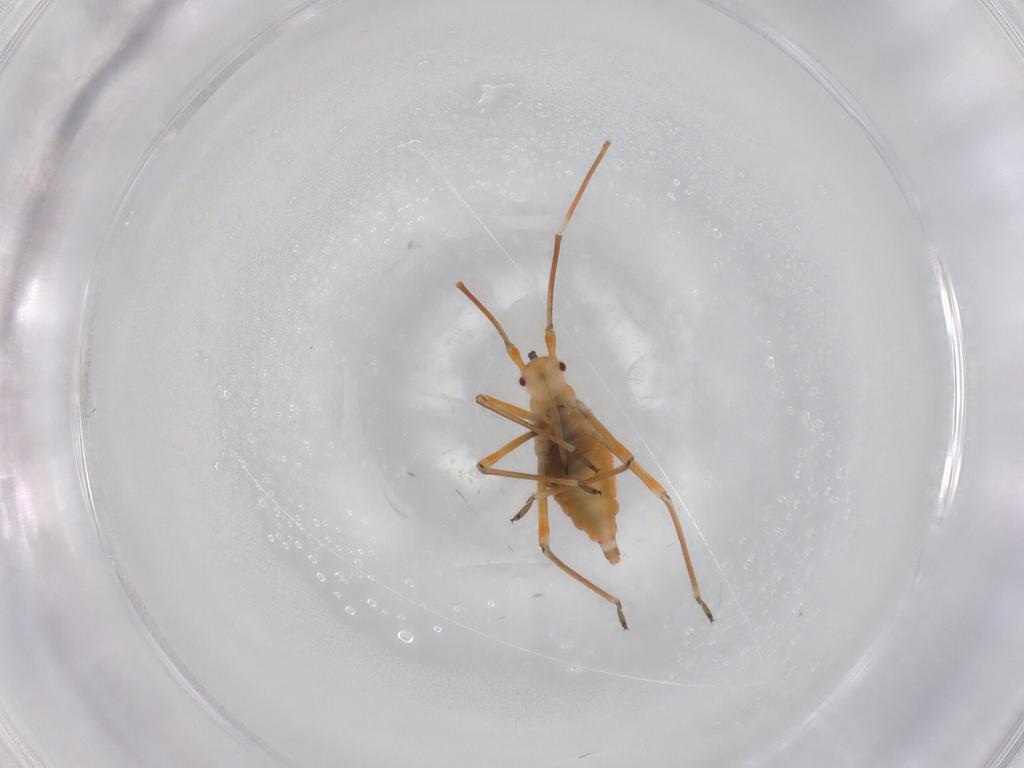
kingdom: Animalia
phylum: Arthropoda
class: Insecta
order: Hemiptera
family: Miridae
